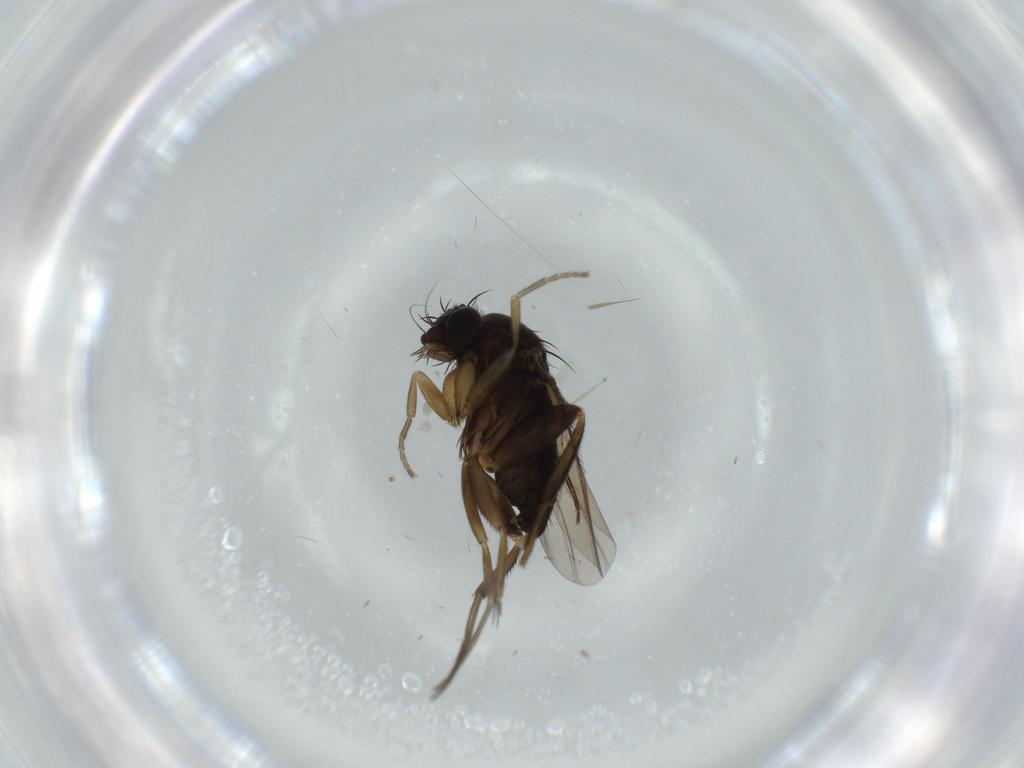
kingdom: Animalia
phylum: Arthropoda
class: Insecta
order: Diptera
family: Phoridae
